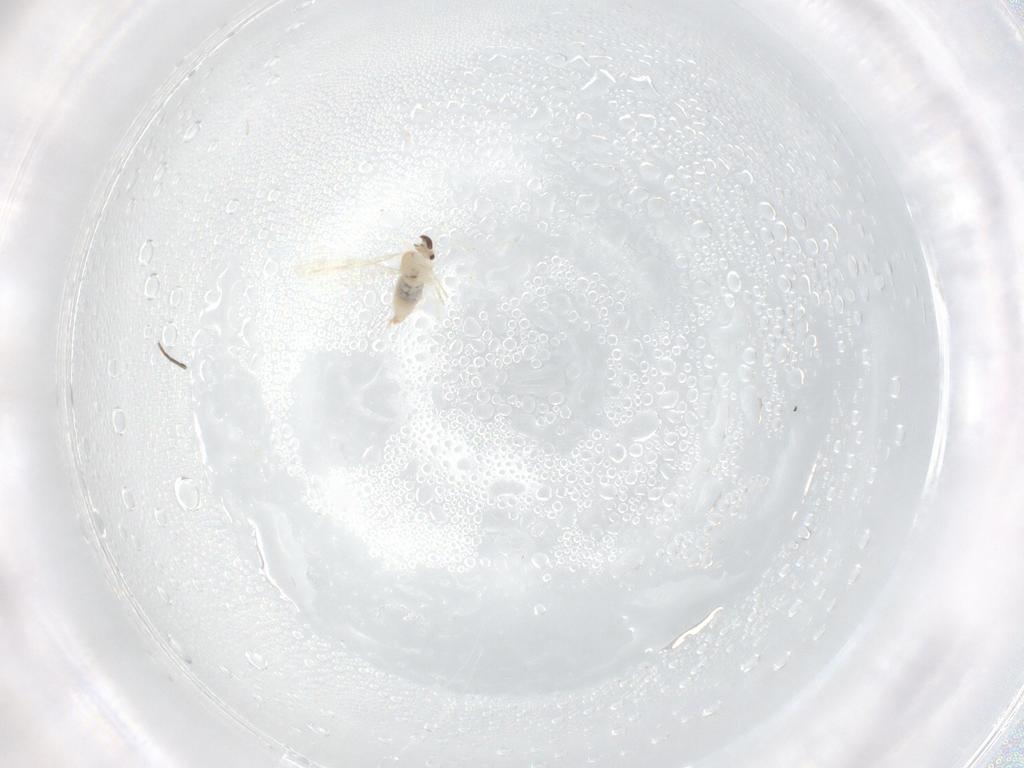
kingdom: Animalia
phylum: Arthropoda
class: Insecta
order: Diptera
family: Cecidomyiidae
